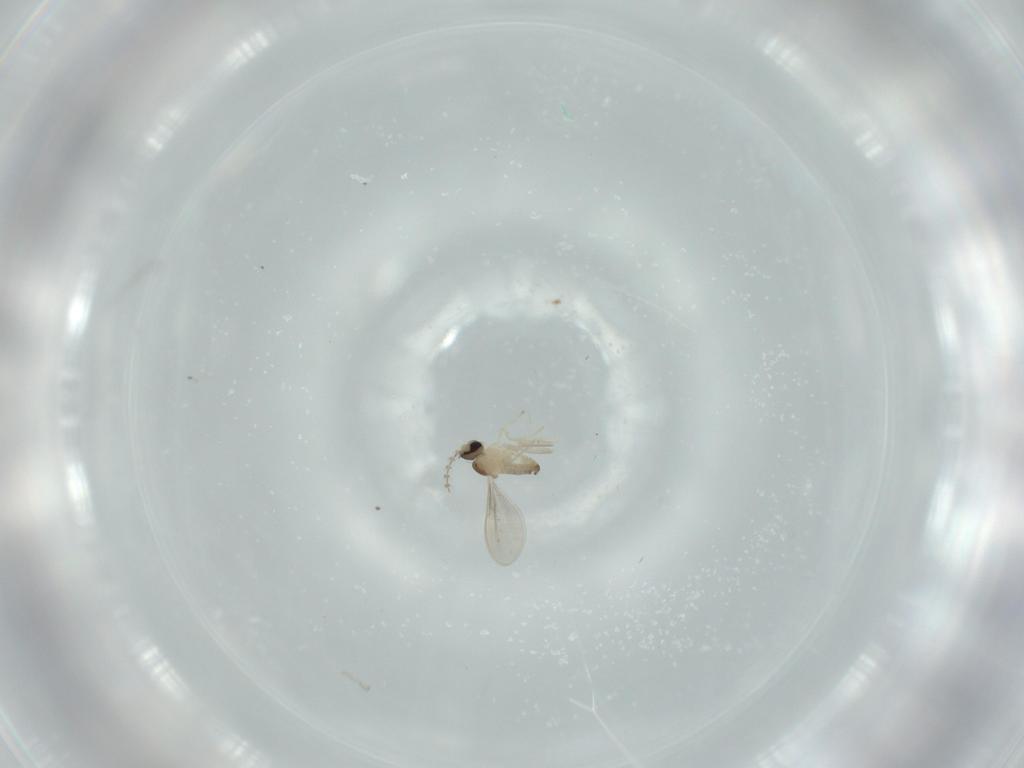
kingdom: Animalia
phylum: Arthropoda
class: Insecta
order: Diptera
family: Cecidomyiidae
